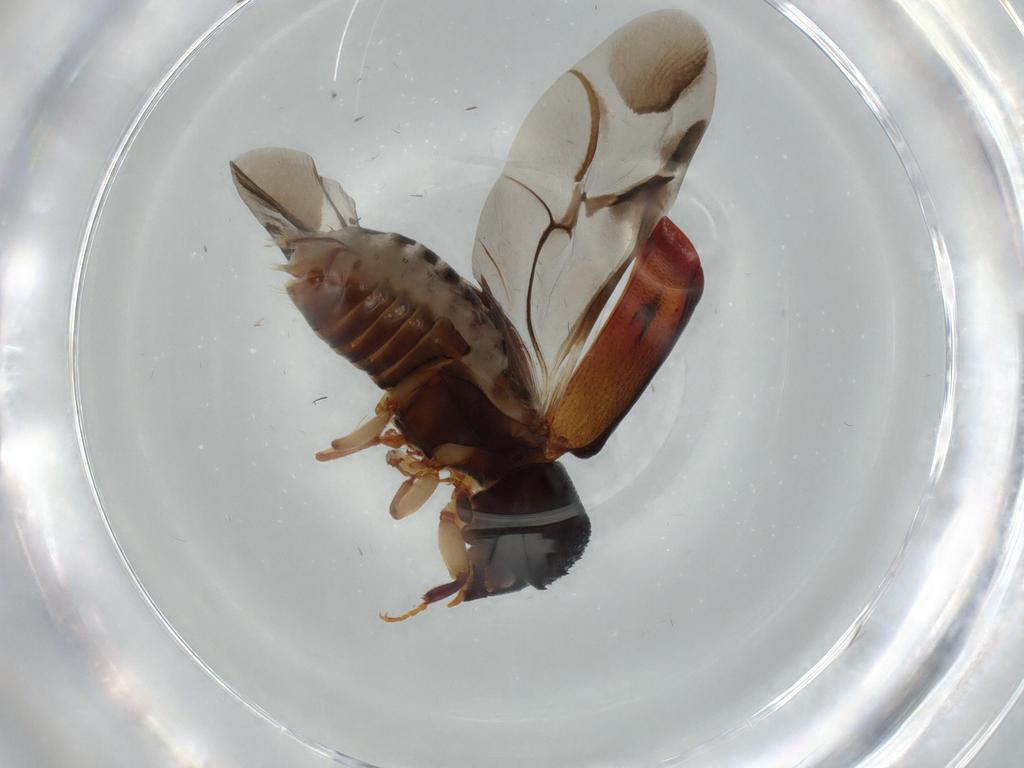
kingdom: Animalia
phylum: Arthropoda
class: Insecta
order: Coleoptera
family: Bostrichidae
